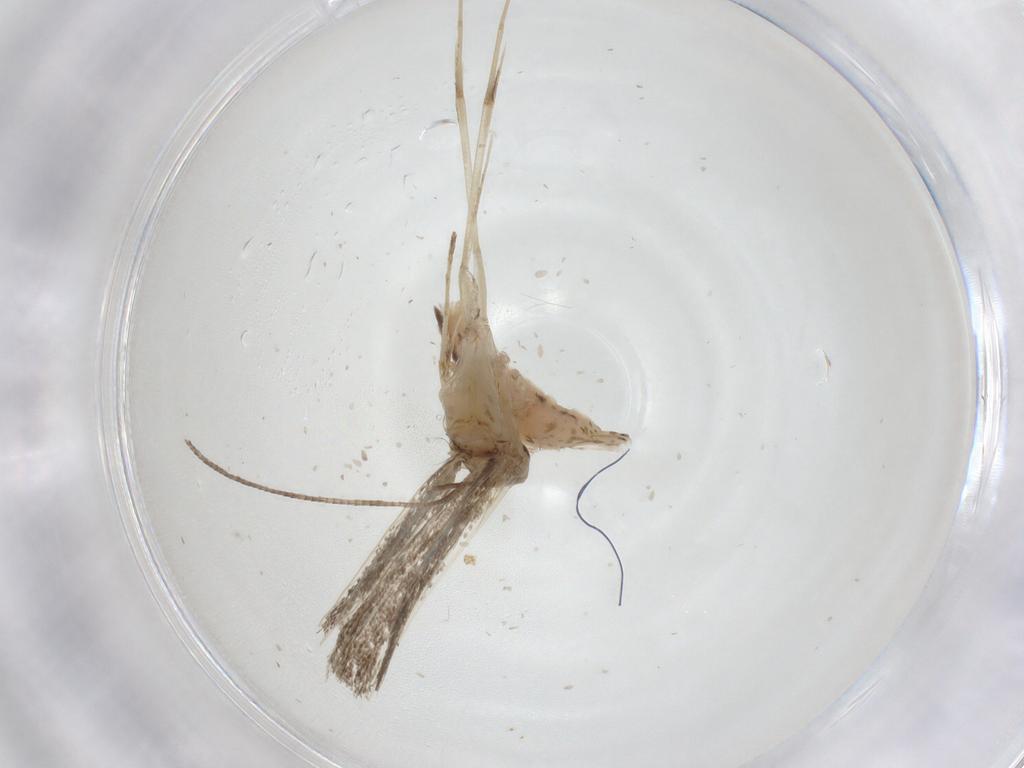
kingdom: Animalia
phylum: Arthropoda
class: Insecta
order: Lepidoptera
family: Gracillariidae
